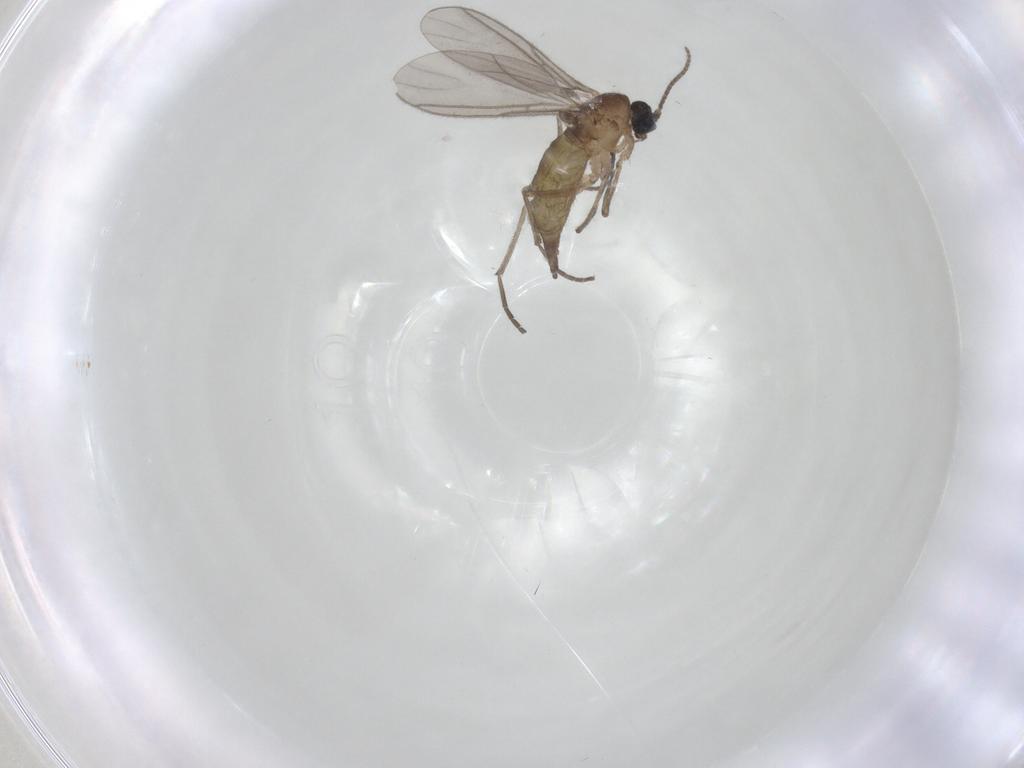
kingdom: Animalia
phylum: Arthropoda
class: Insecta
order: Diptera
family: Sciaridae
